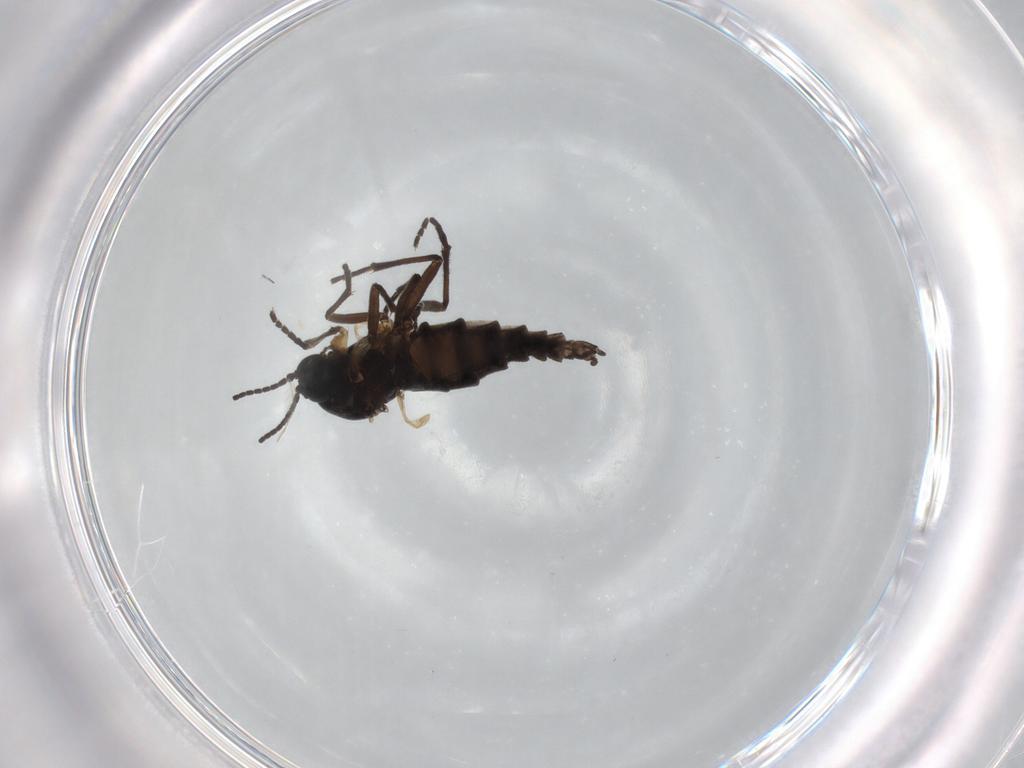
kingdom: Animalia
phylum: Arthropoda
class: Insecta
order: Diptera
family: Sciaridae
